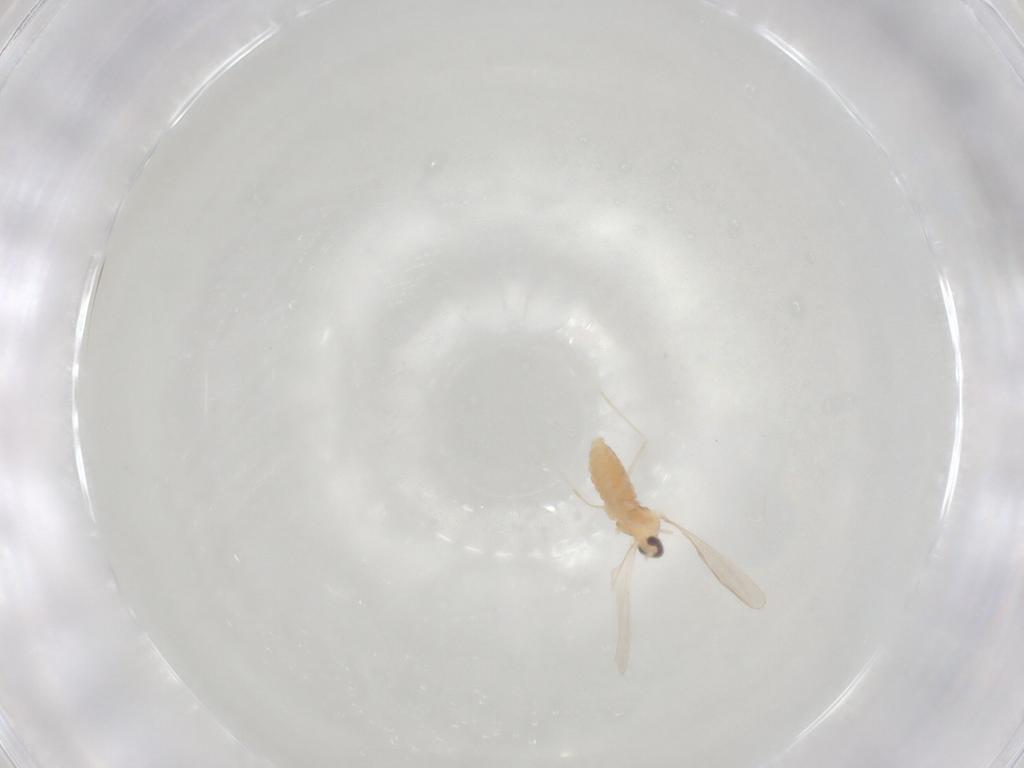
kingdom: Animalia
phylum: Arthropoda
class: Insecta
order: Diptera
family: Cecidomyiidae
